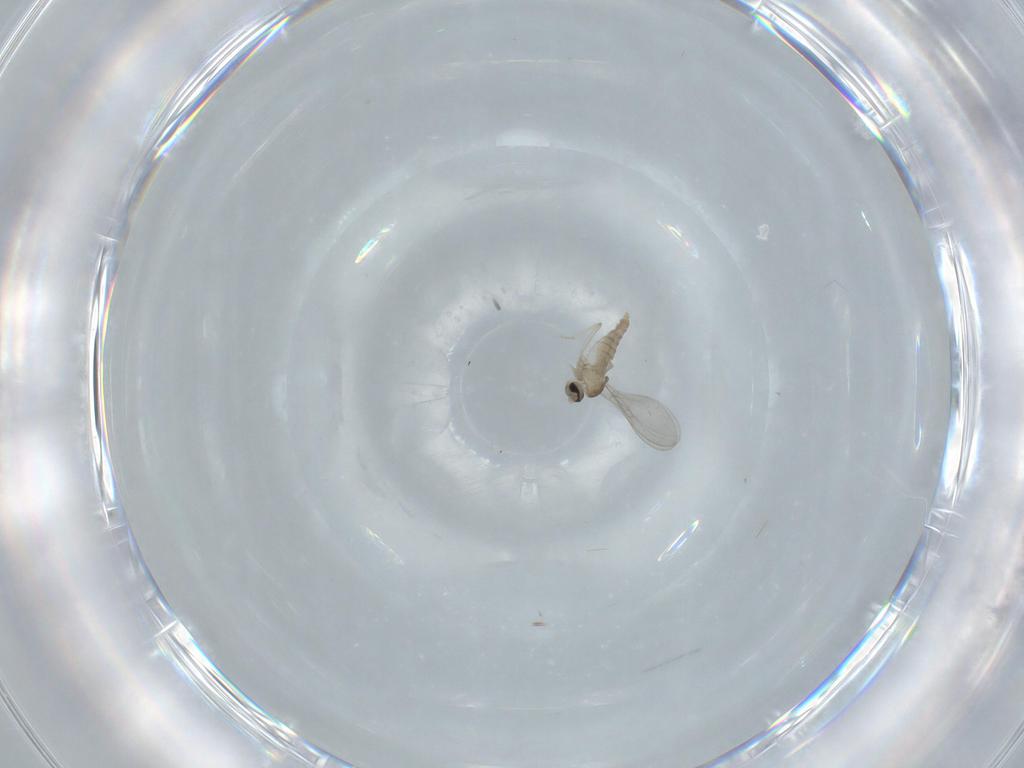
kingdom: Animalia
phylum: Arthropoda
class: Insecta
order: Diptera
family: Cecidomyiidae
